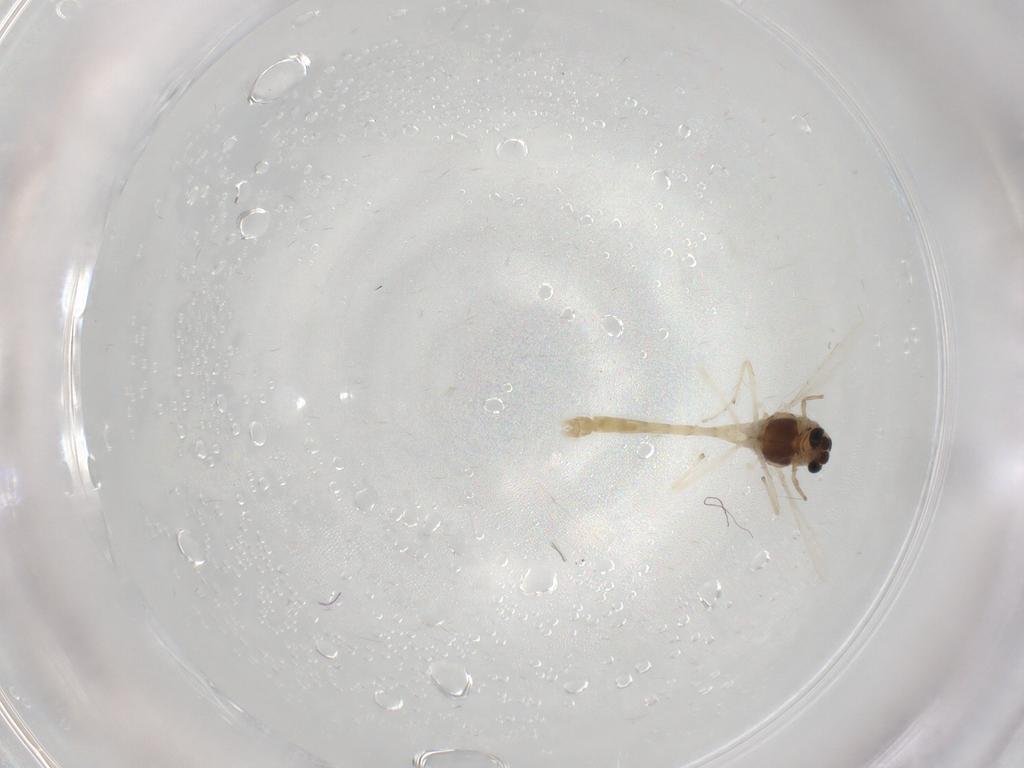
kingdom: Animalia
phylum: Arthropoda
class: Insecta
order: Diptera
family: Chironomidae
